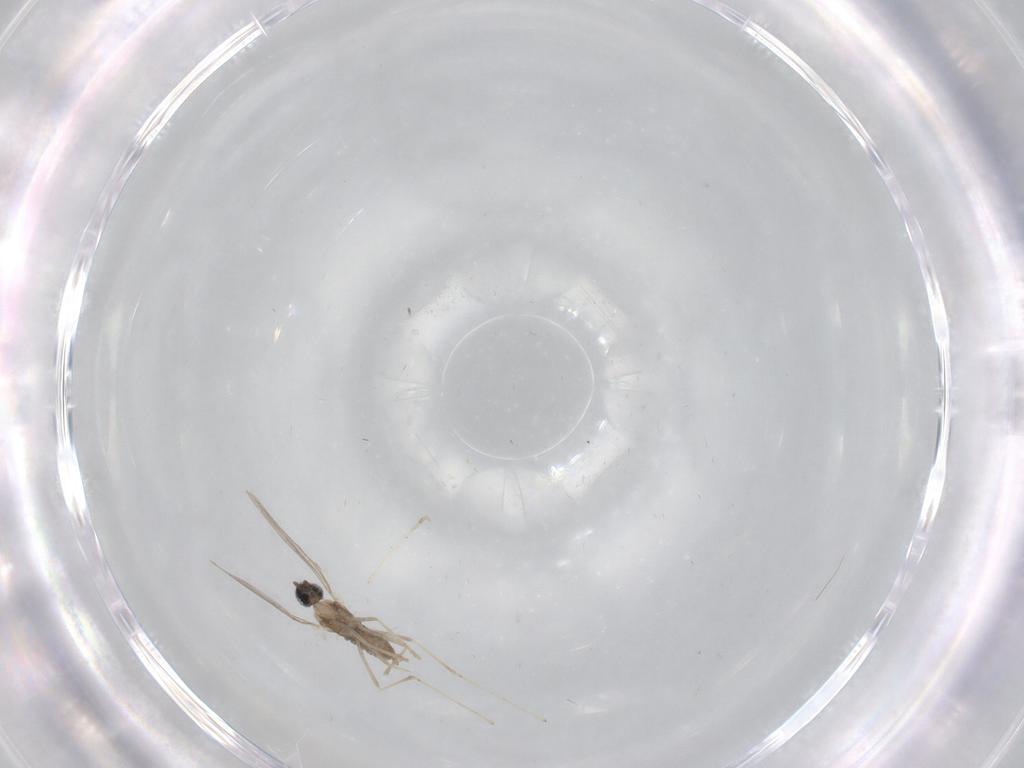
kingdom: Animalia
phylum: Arthropoda
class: Insecta
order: Diptera
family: Cecidomyiidae
